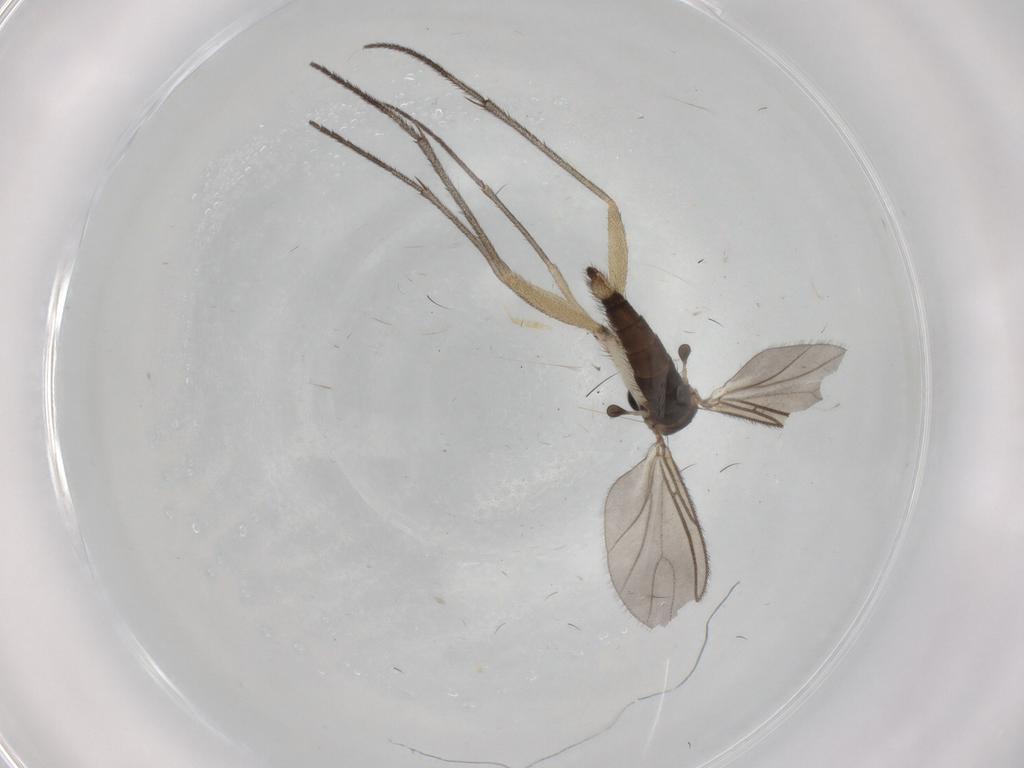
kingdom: Animalia
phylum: Arthropoda
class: Insecta
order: Diptera
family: Sciaridae
